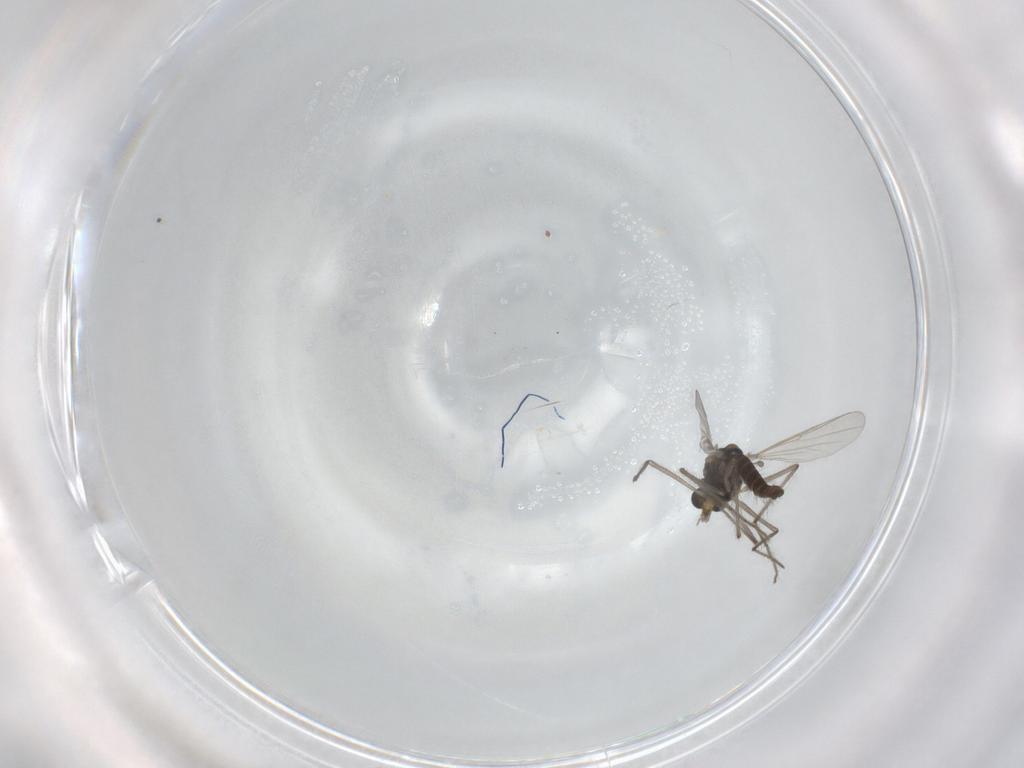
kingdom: Animalia
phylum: Arthropoda
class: Insecta
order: Diptera
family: Chironomidae
